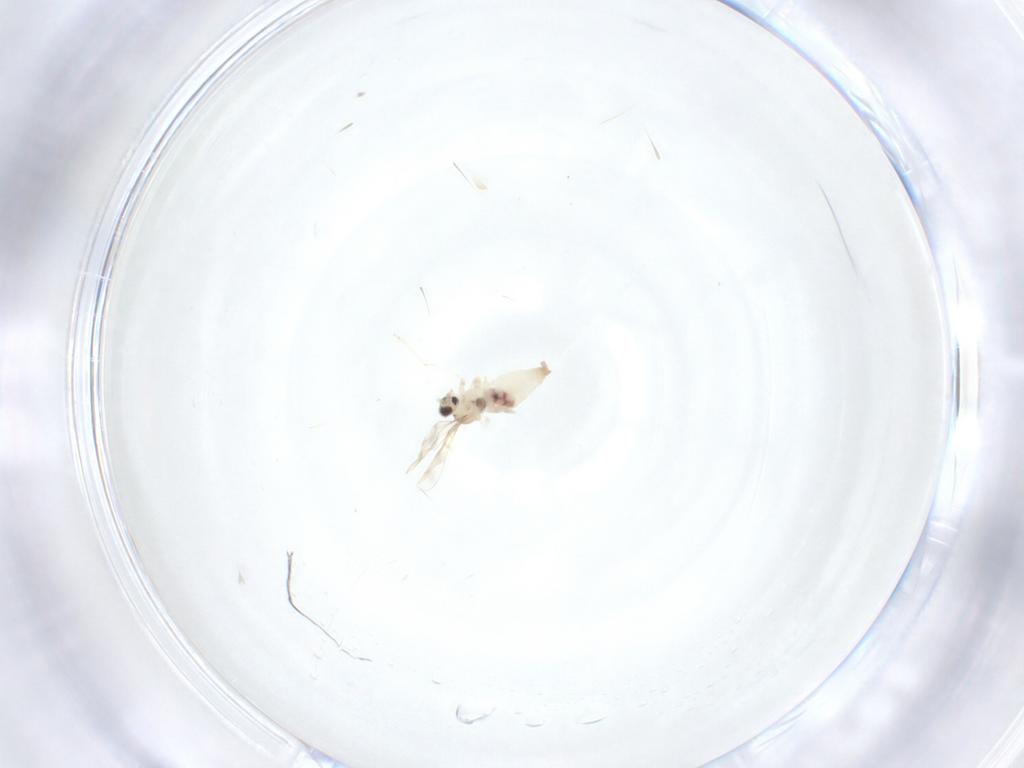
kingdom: Animalia
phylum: Arthropoda
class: Insecta
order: Diptera
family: Cecidomyiidae
